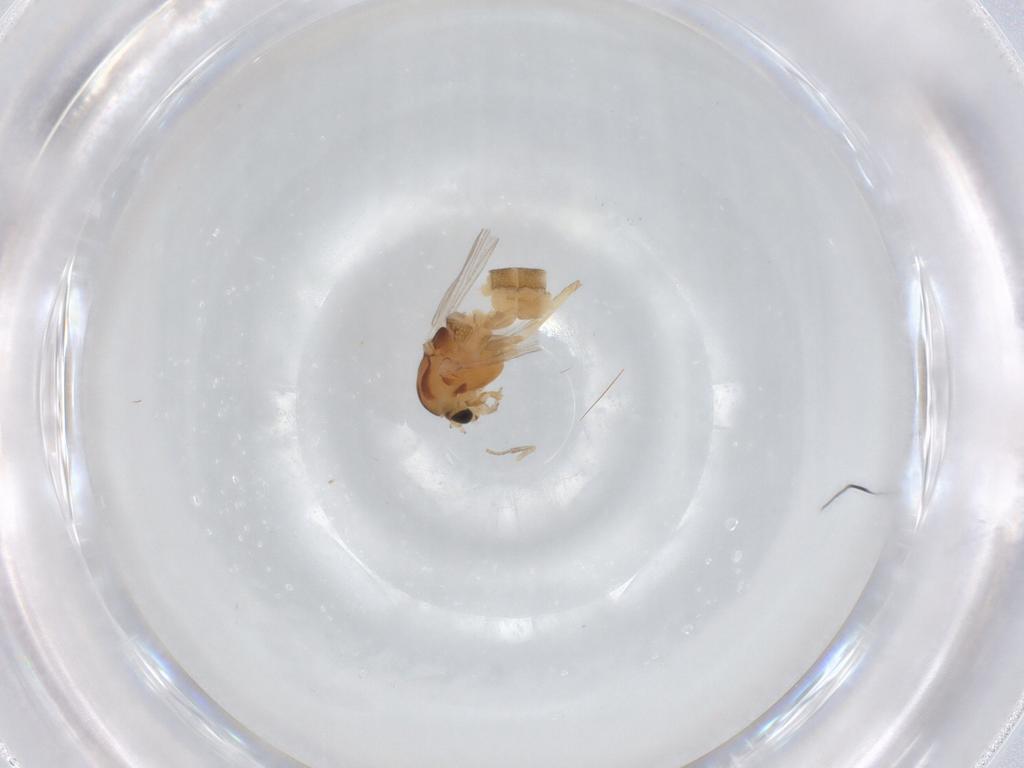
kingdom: Animalia
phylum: Arthropoda
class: Insecta
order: Diptera
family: Chironomidae
